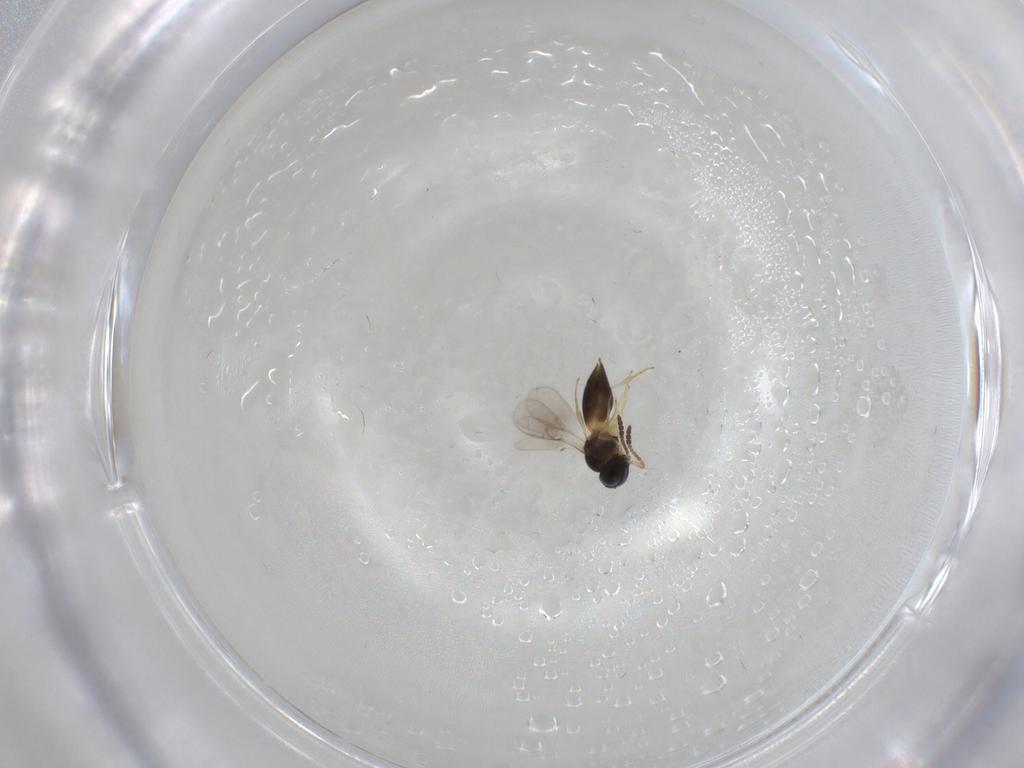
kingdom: Animalia
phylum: Arthropoda
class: Insecta
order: Hymenoptera
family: Scelionidae
